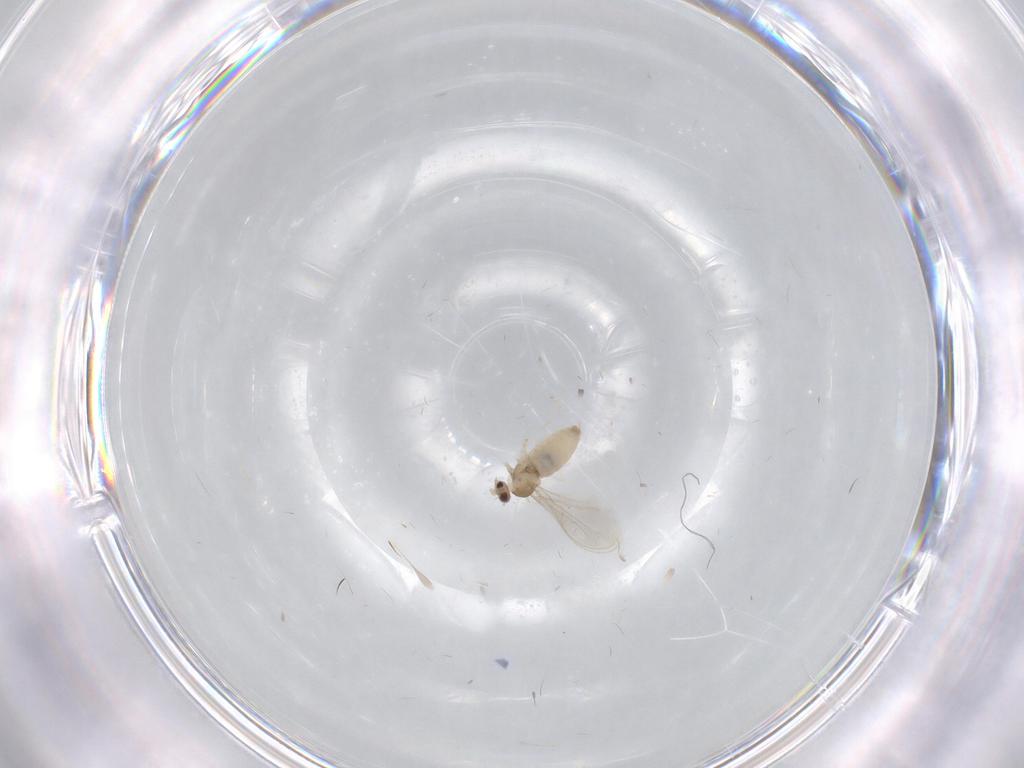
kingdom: Animalia
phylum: Arthropoda
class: Insecta
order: Diptera
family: Cecidomyiidae
